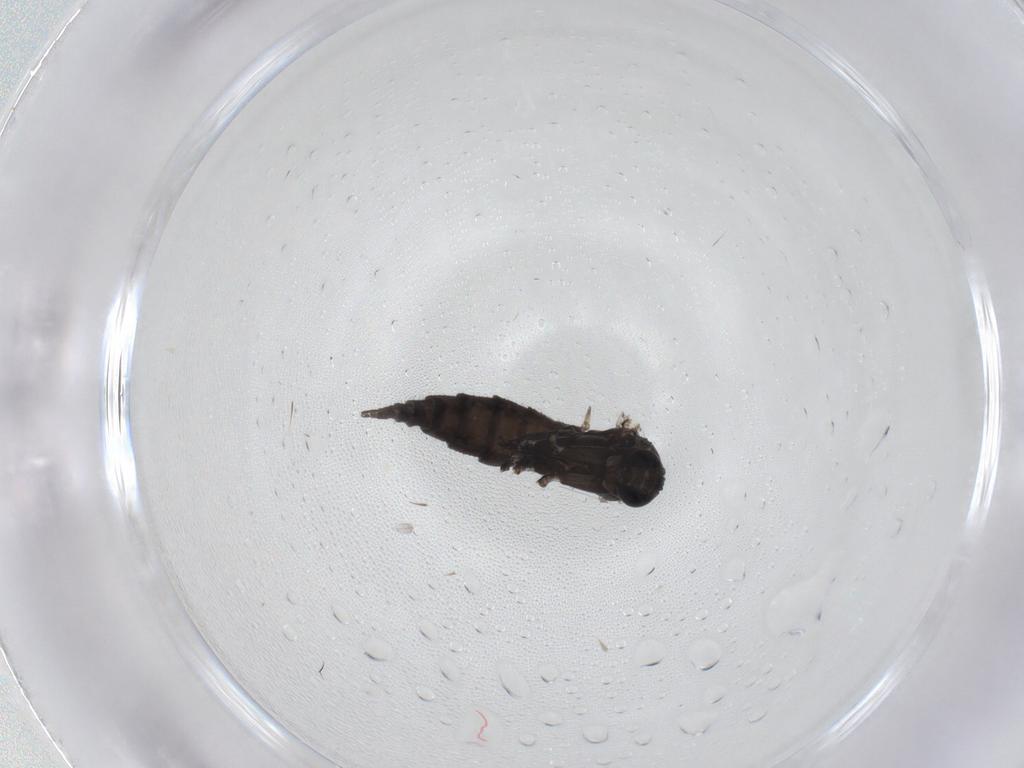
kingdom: Animalia
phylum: Arthropoda
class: Insecta
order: Diptera
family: Sciaridae
